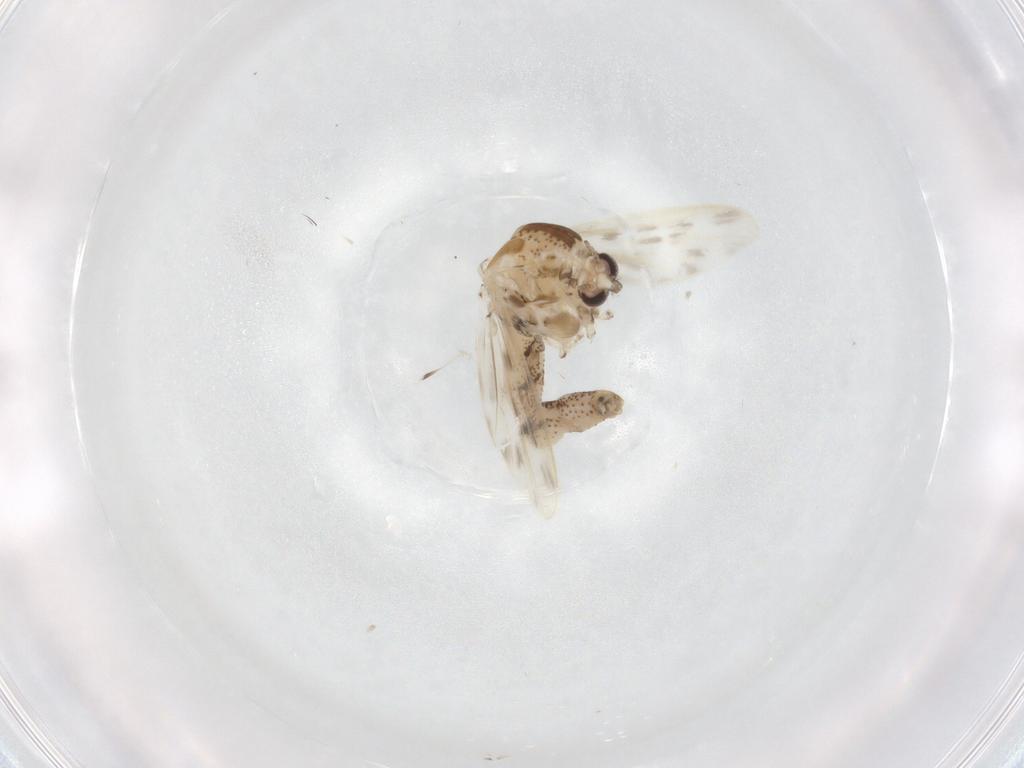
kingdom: Animalia
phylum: Arthropoda
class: Insecta
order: Diptera
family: Chaoboridae
